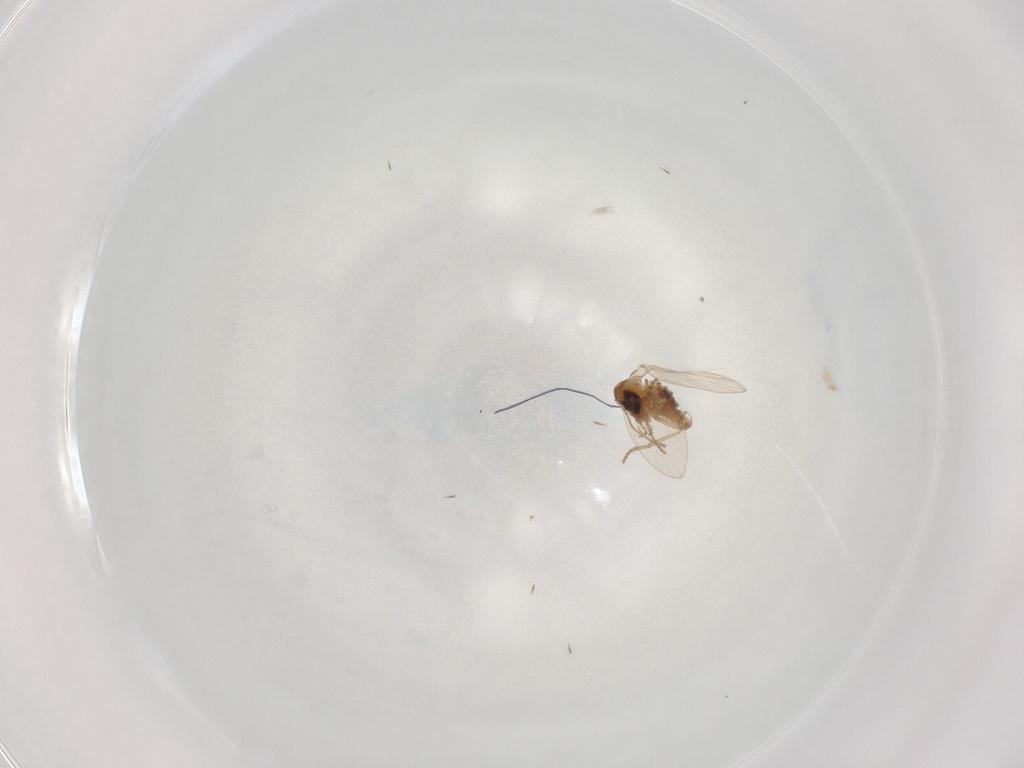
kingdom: Animalia
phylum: Arthropoda
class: Insecta
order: Diptera
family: Psychodidae
